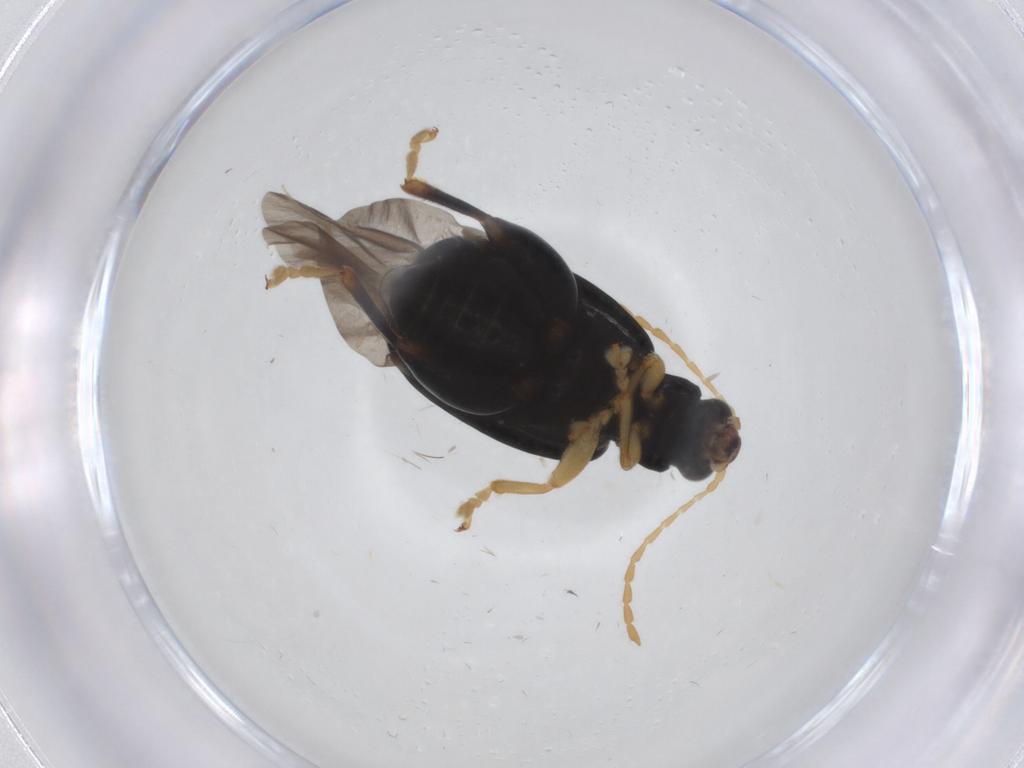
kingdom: Animalia
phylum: Arthropoda
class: Insecta
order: Coleoptera
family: Chrysomelidae
